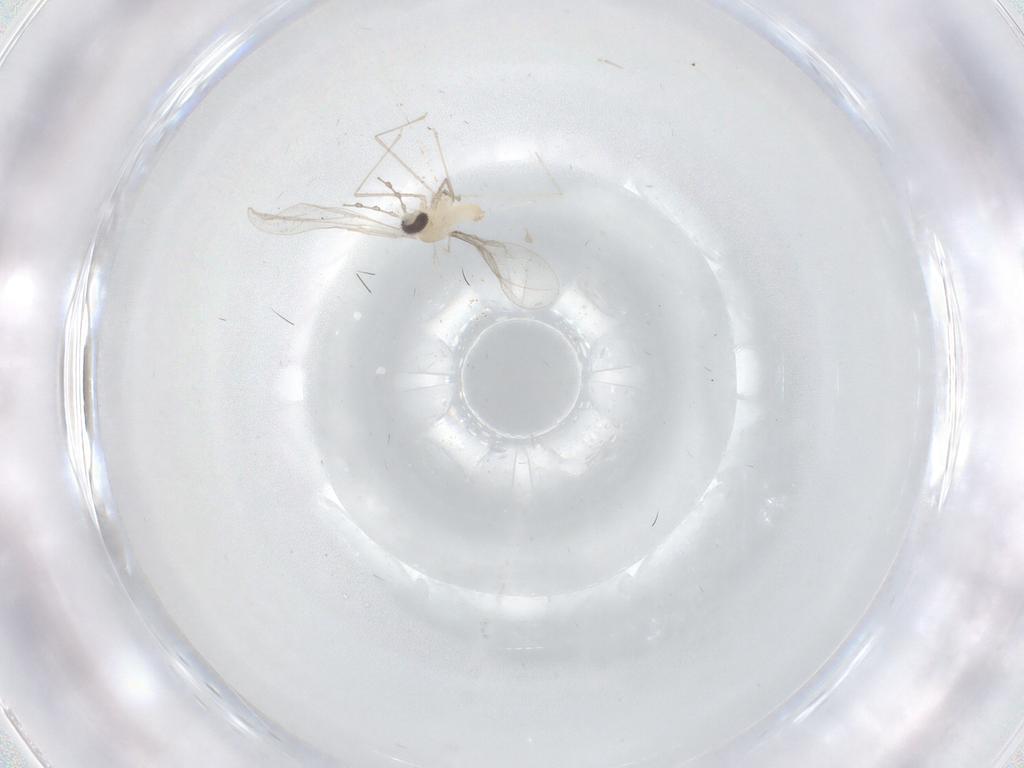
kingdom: Animalia
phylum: Arthropoda
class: Insecta
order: Diptera
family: Cecidomyiidae
